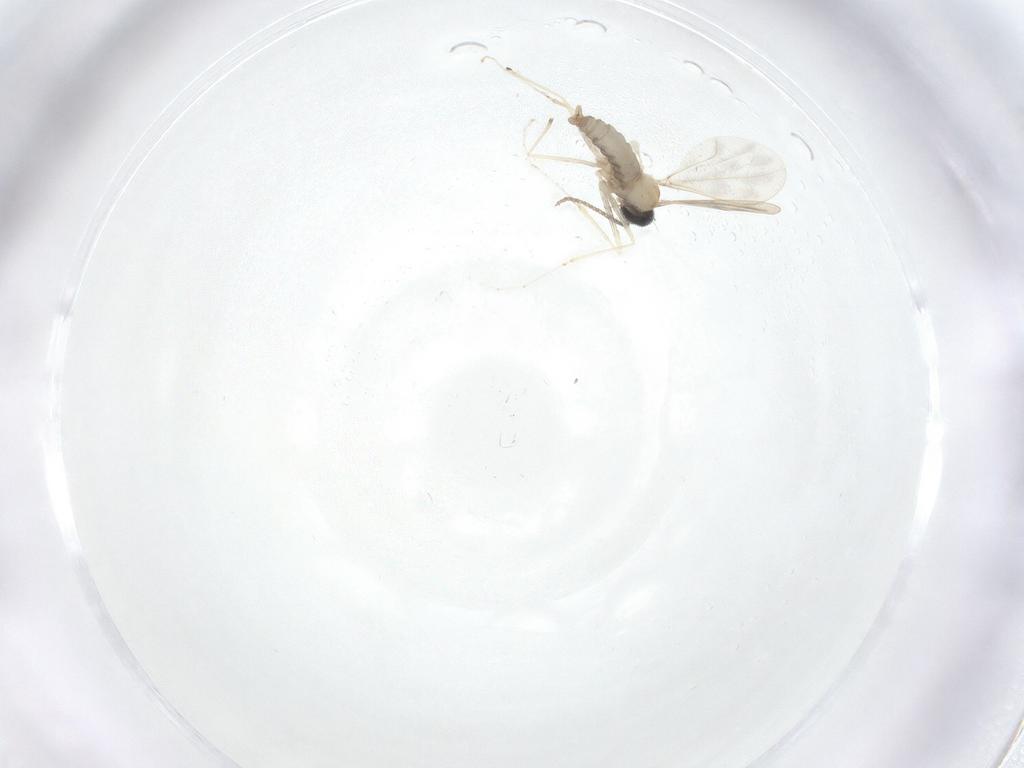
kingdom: Animalia
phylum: Arthropoda
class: Insecta
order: Diptera
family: Cecidomyiidae
